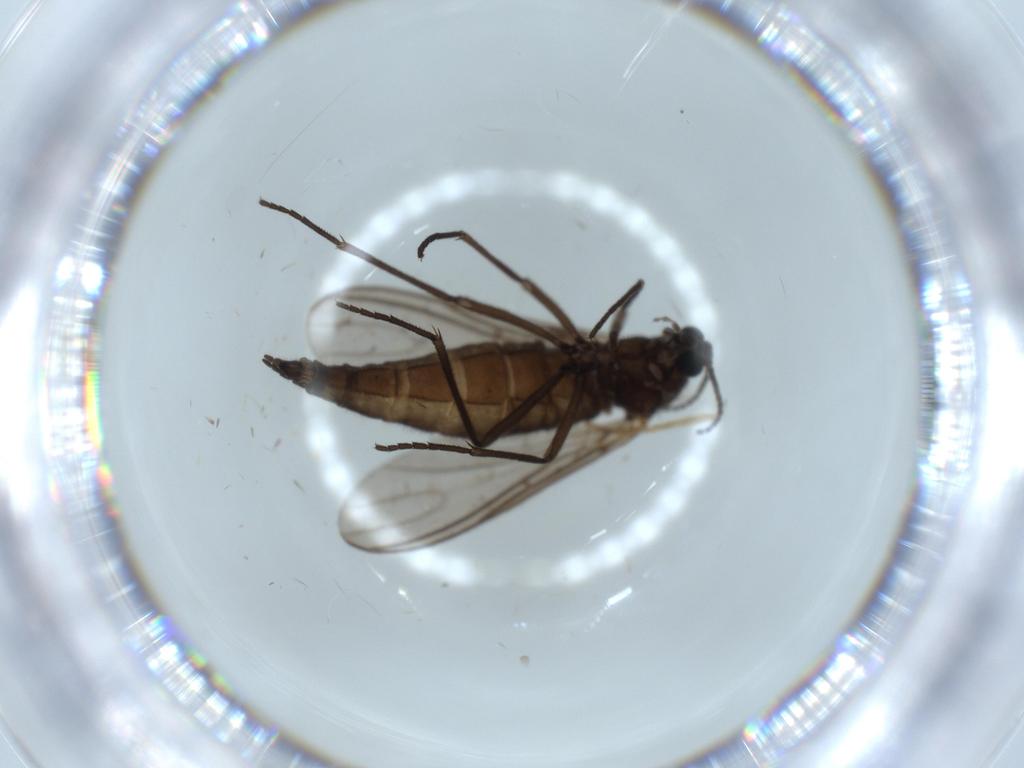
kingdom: Animalia
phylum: Arthropoda
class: Insecta
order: Diptera
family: Sciaridae
